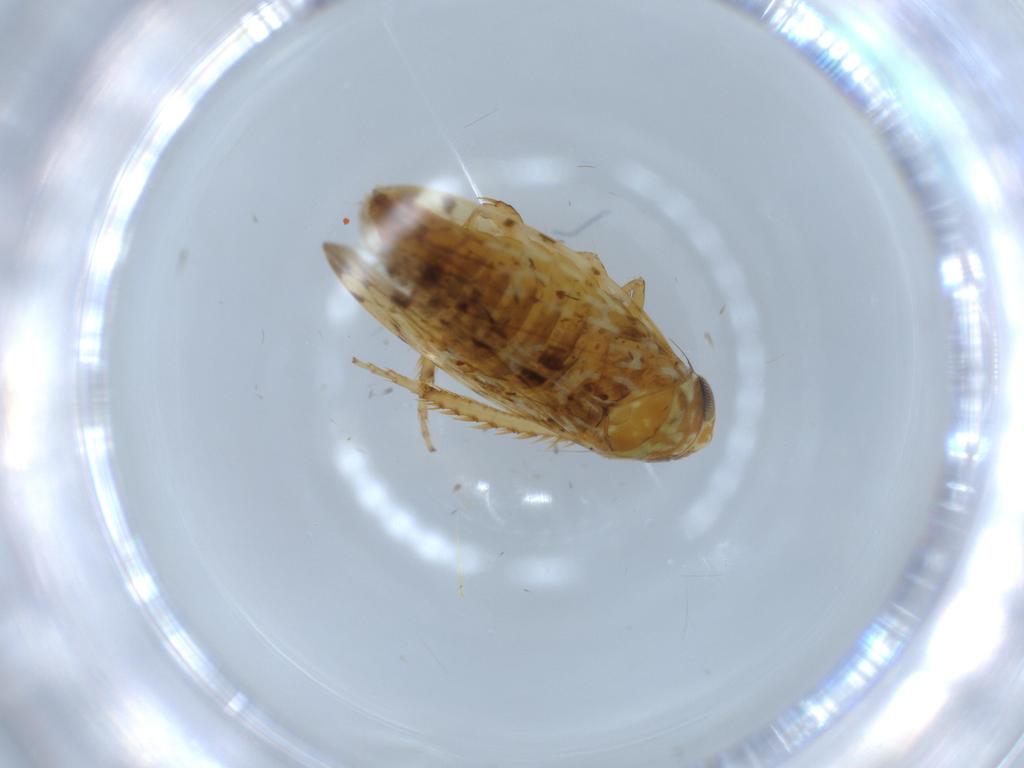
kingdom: Animalia
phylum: Arthropoda
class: Insecta
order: Hemiptera
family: Cicadellidae
